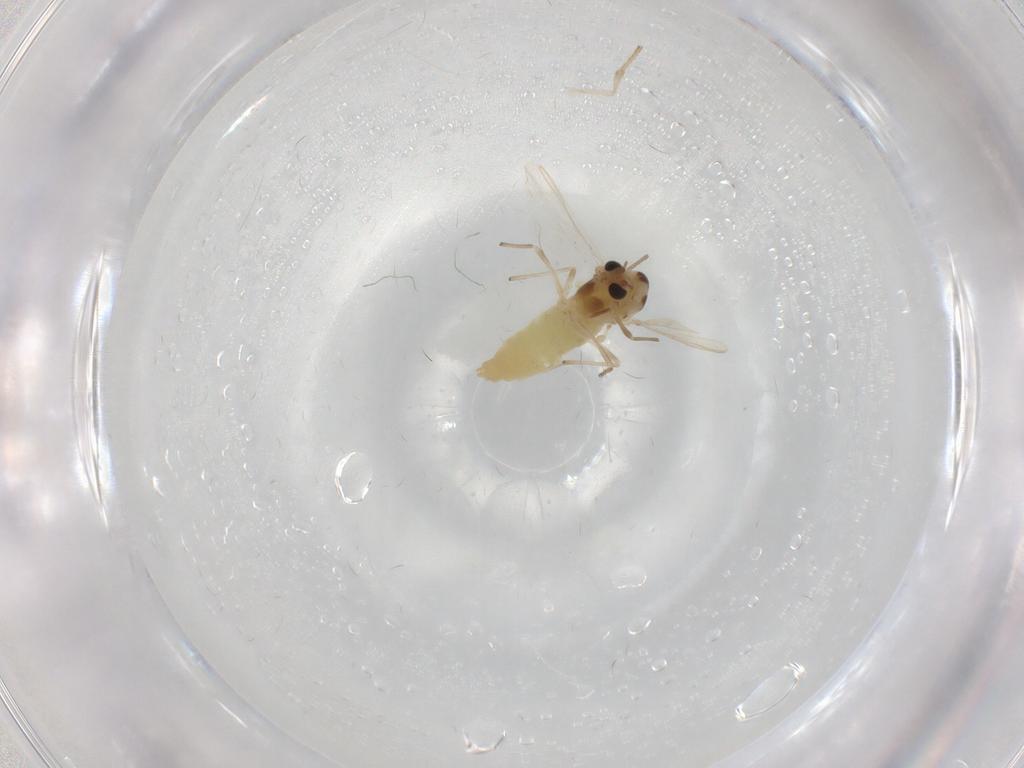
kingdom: Animalia
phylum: Arthropoda
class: Insecta
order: Diptera
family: Chironomidae
